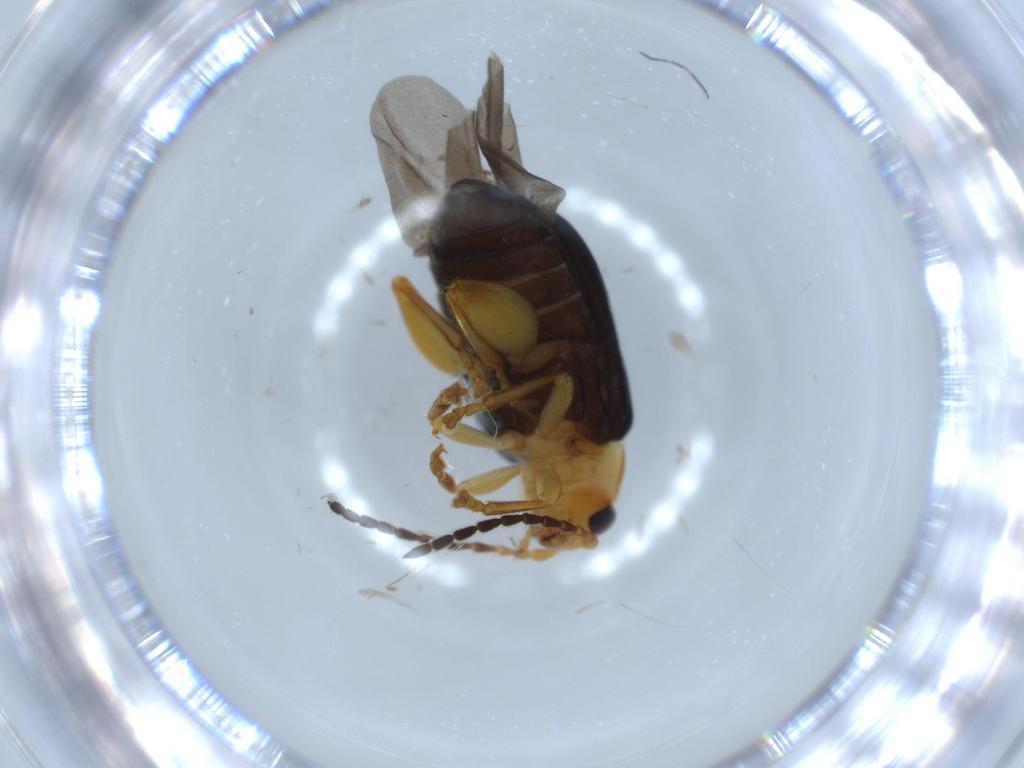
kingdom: Animalia
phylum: Arthropoda
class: Insecta
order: Coleoptera
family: Chrysomelidae
